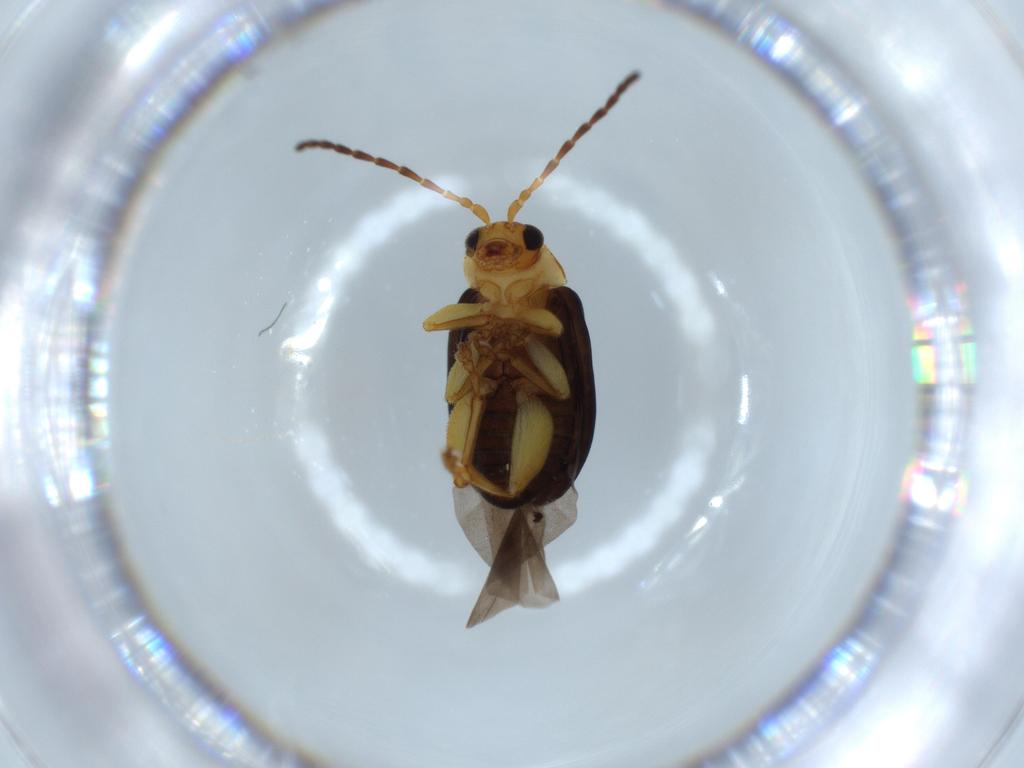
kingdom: Animalia
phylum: Arthropoda
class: Insecta
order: Coleoptera
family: Chrysomelidae
